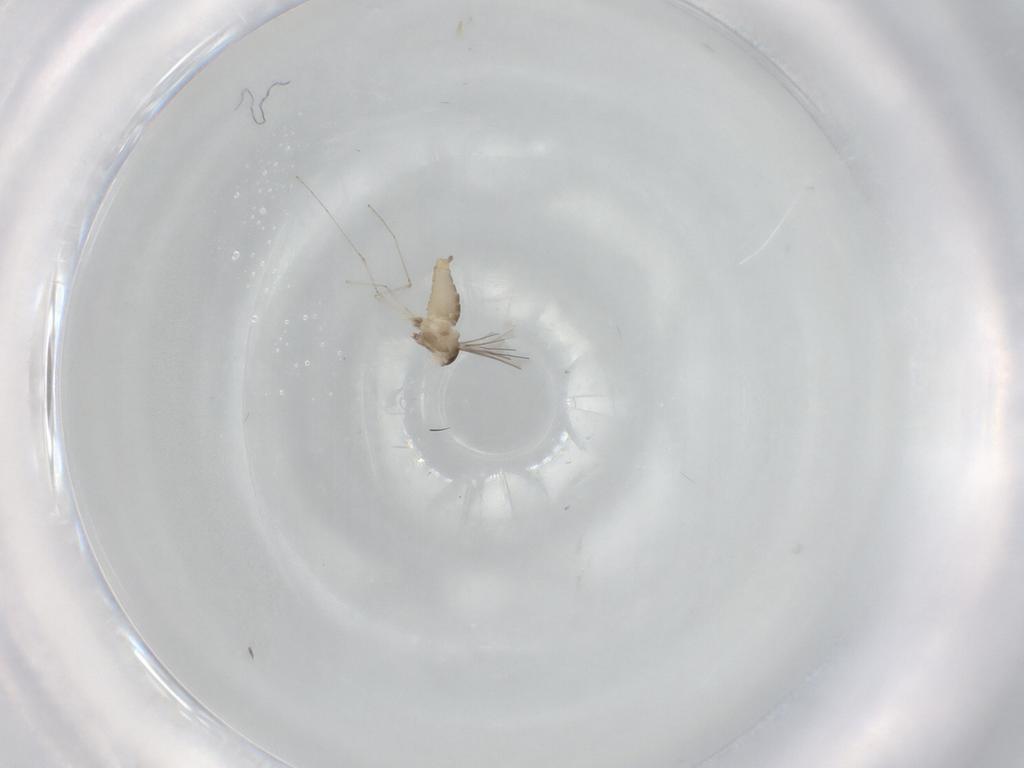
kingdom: Animalia
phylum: Arthropoda
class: Insecta
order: Diptera
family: Cecidomyiidae
